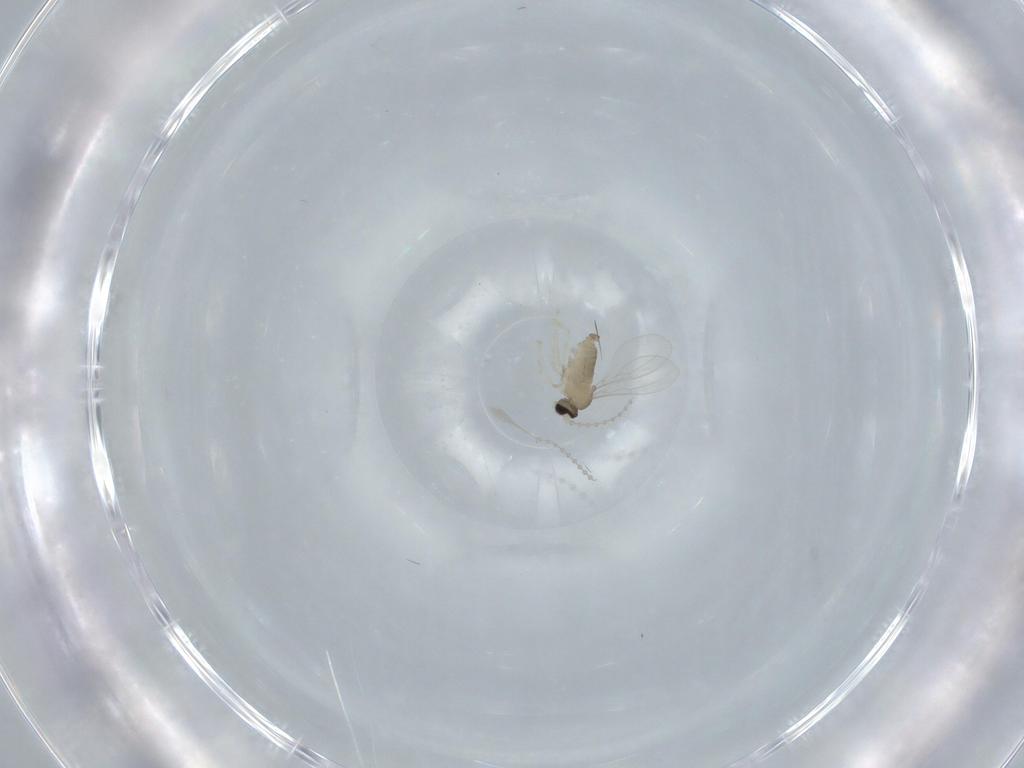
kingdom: Animalia
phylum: Arthropoda
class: Insecta
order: Diptera
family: Cecidomyiidae
